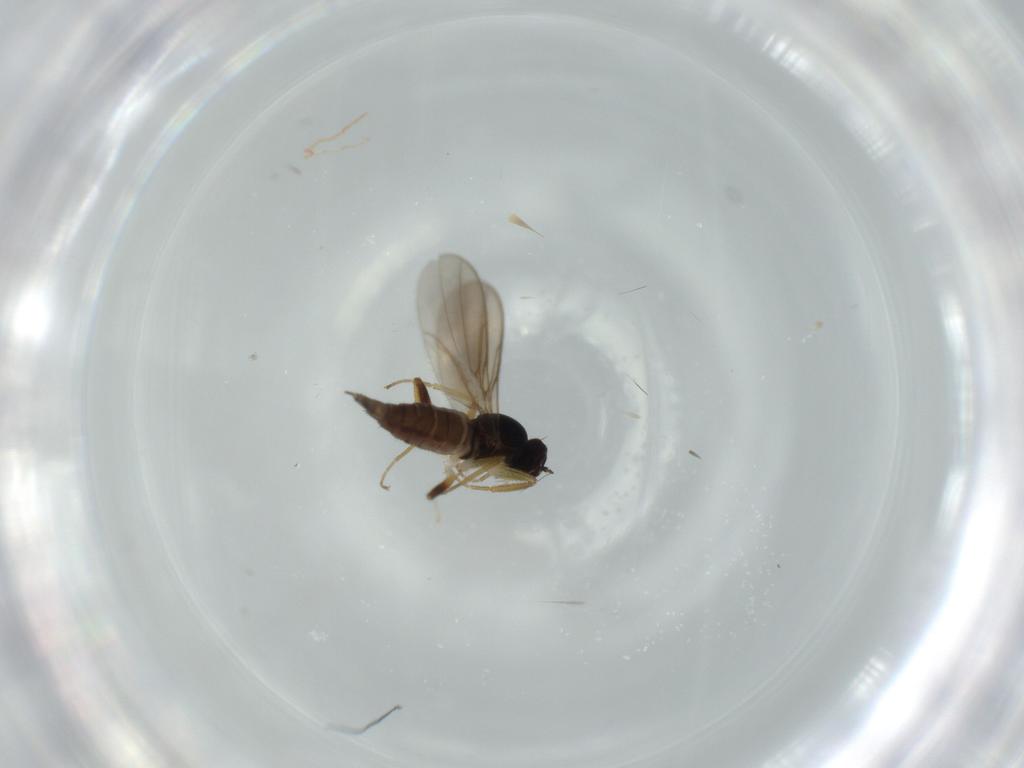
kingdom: Animalia
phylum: Arthropoda
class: Insecta
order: Diptera
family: Hybotidae
